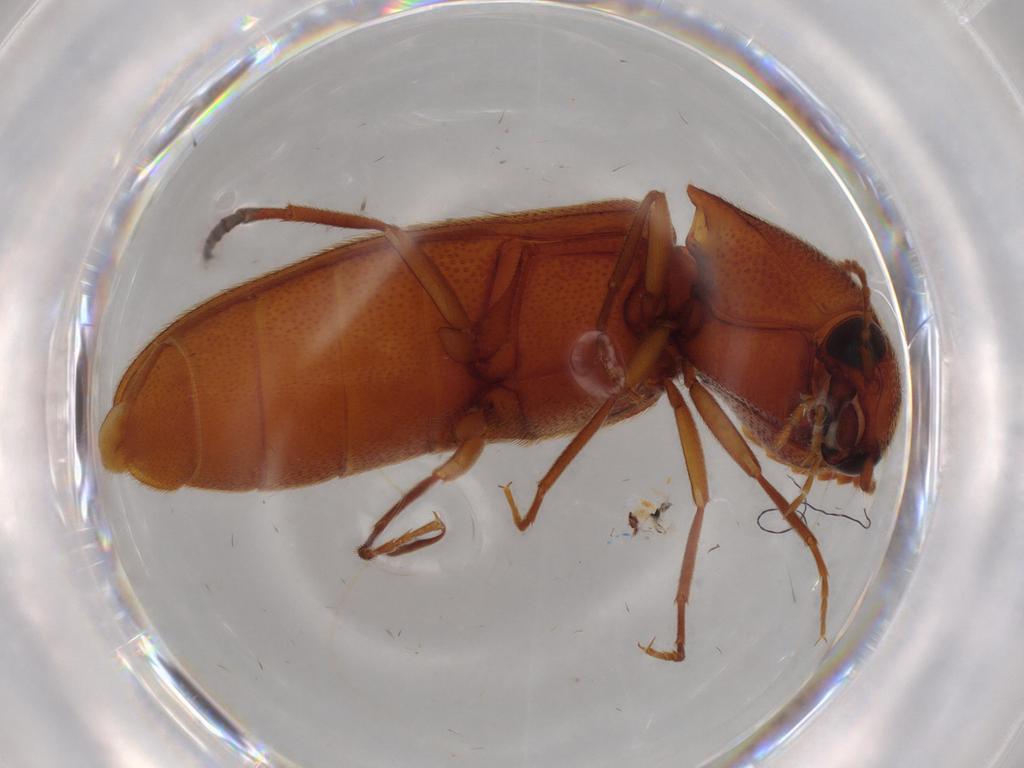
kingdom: Animalia
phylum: Arthropoda
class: Insecta
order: Coleoptera
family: Elateridae
